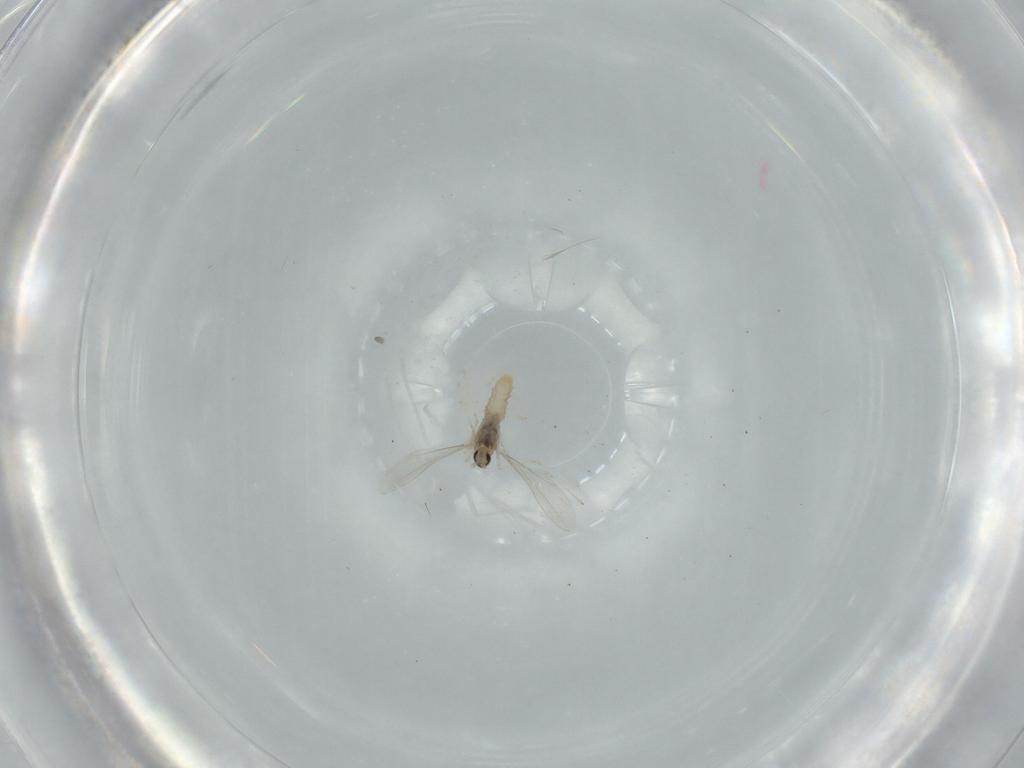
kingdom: Animalia
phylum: Arthropoda
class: Insecta
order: Diptera
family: Cecidomyiidae
